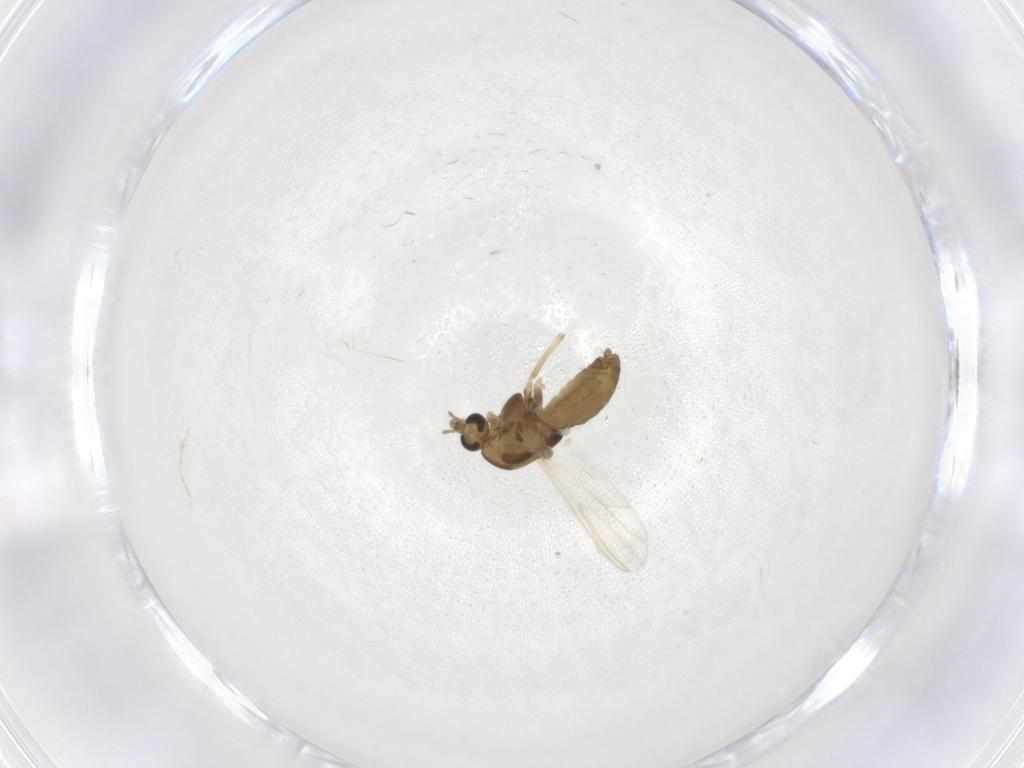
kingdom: Animalia
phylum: Arthropoda
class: Insecta
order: Diptera
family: Chironomidae
